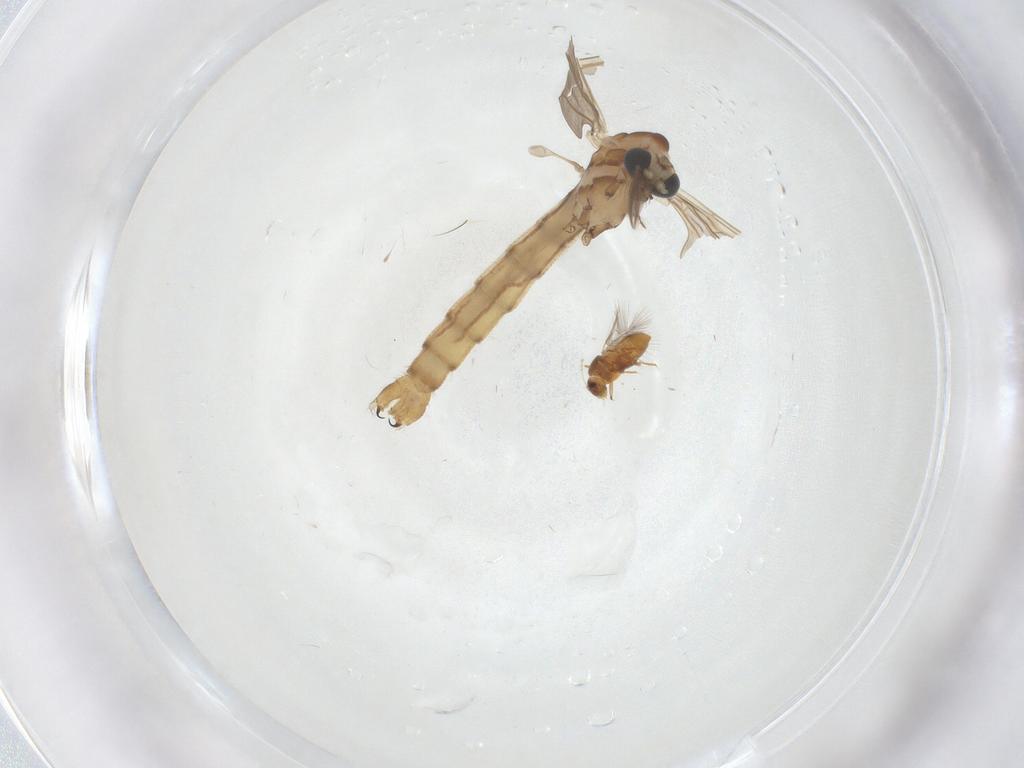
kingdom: Animalia
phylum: Arthropoda
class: Insecta
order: Diptera
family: Limoniidae
